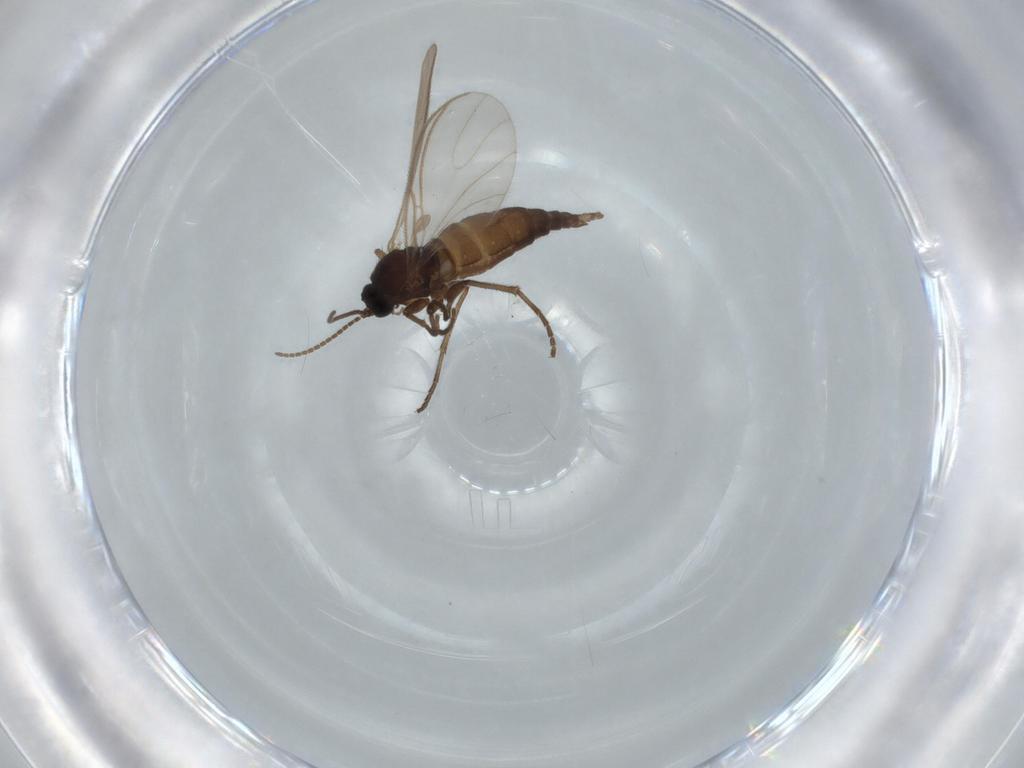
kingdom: Animalia
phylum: Arthropoda
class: Insecta
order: Diptera
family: Sciaridae
